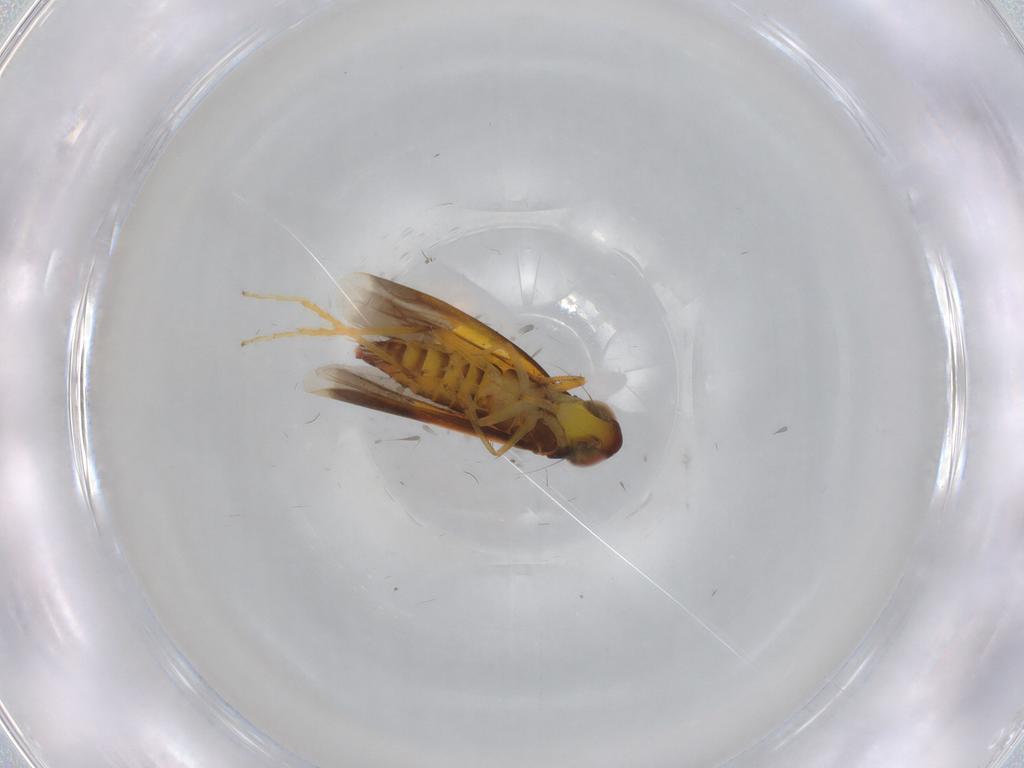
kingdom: Animalia
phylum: Arthropoda
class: Insecta
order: Hemiptera
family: Cicadellidae
